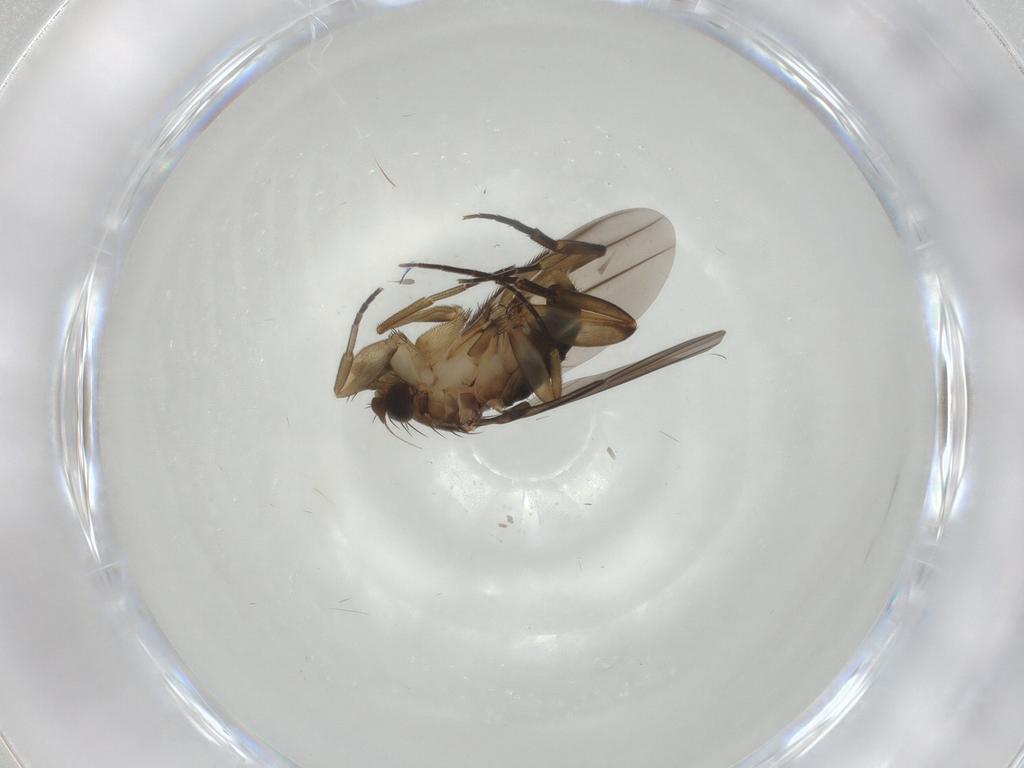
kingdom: Animalia
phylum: Arthropoda
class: Insecta
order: Diptera
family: Phoridae
